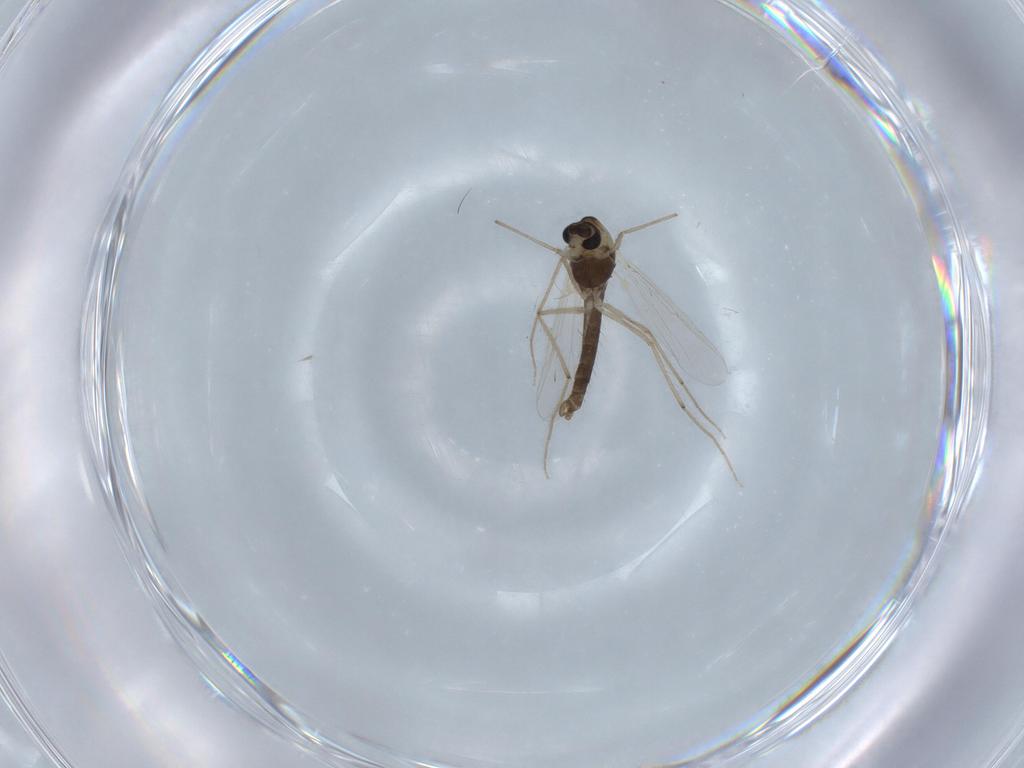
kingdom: Animalia
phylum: Arthropoda
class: Insecta
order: Diptera
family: Chironomidae
